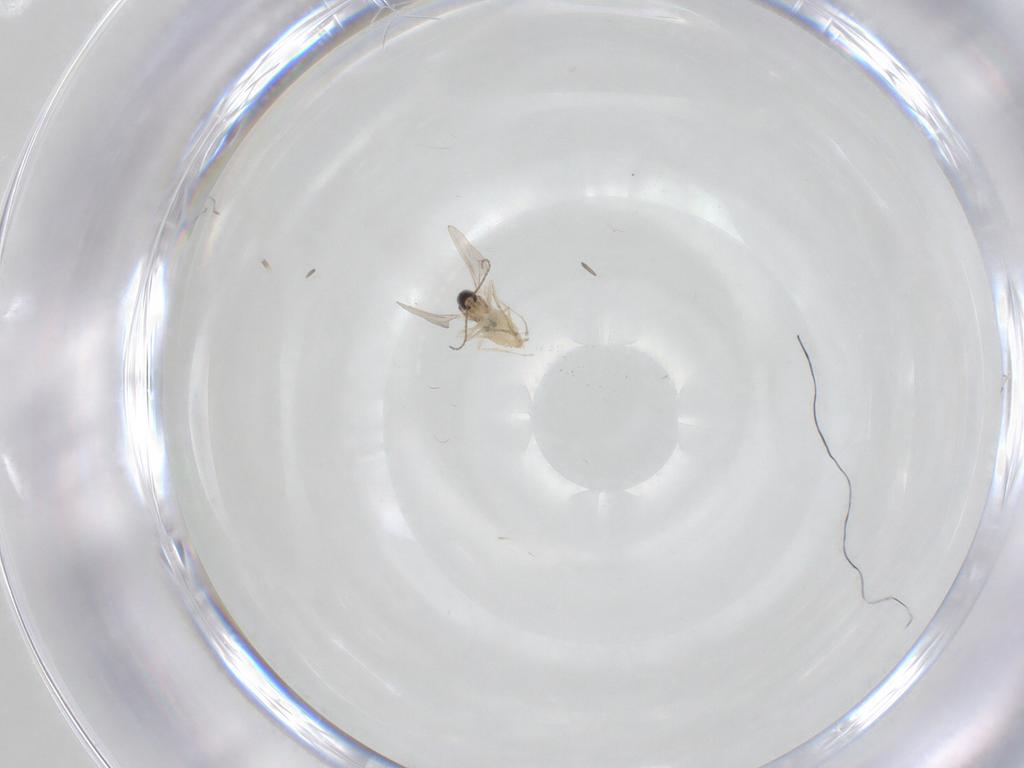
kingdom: Animalia
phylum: Arthropoda
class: Insecta
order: Diptera
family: Cecidomyiidae
